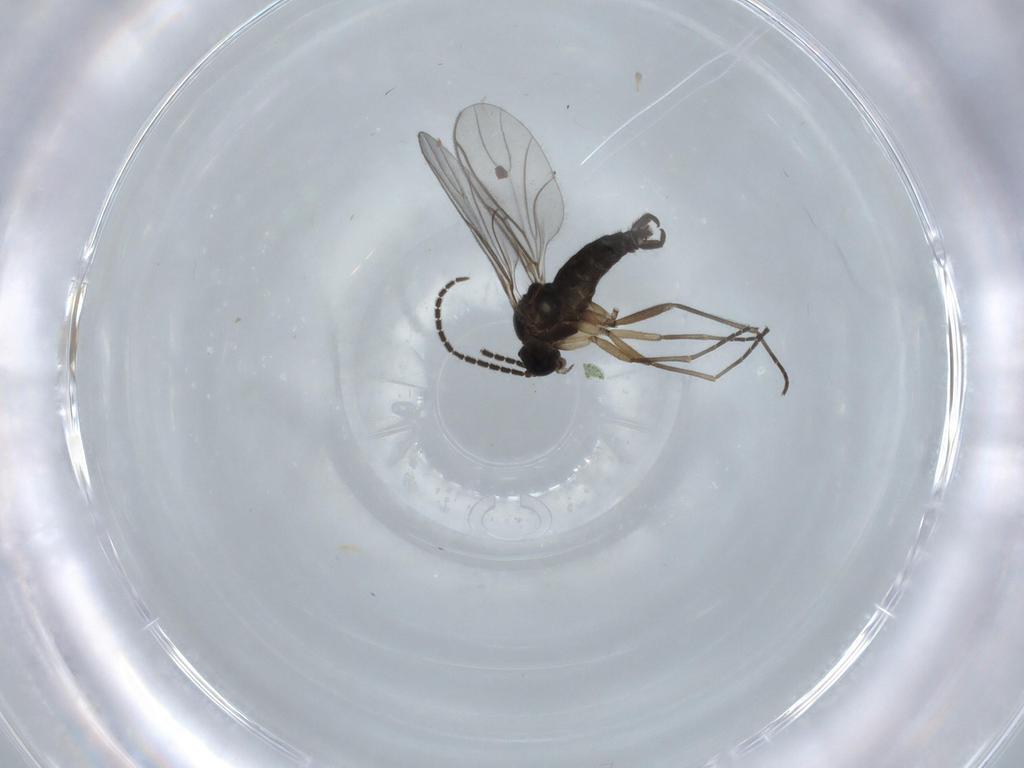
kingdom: Animalia
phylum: Arthropoda
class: Insecta
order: Diptera
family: Sciaridae
